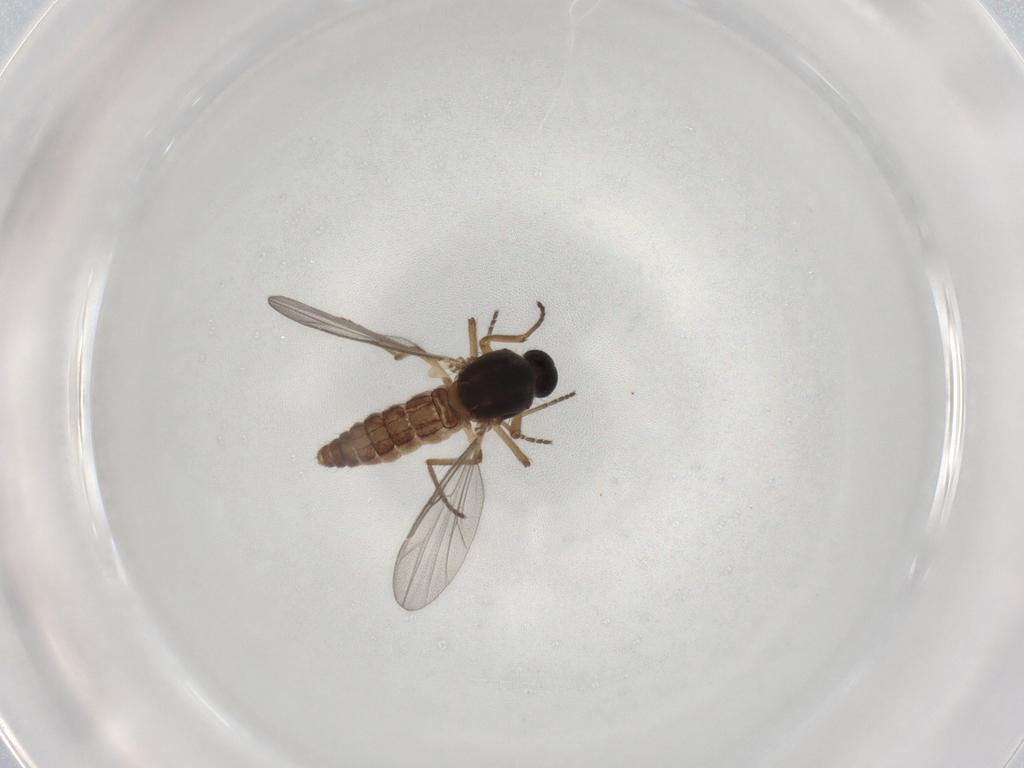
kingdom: Animalia
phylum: Arthropoda
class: Insecta
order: Diptera
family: Ceratopogonidae
